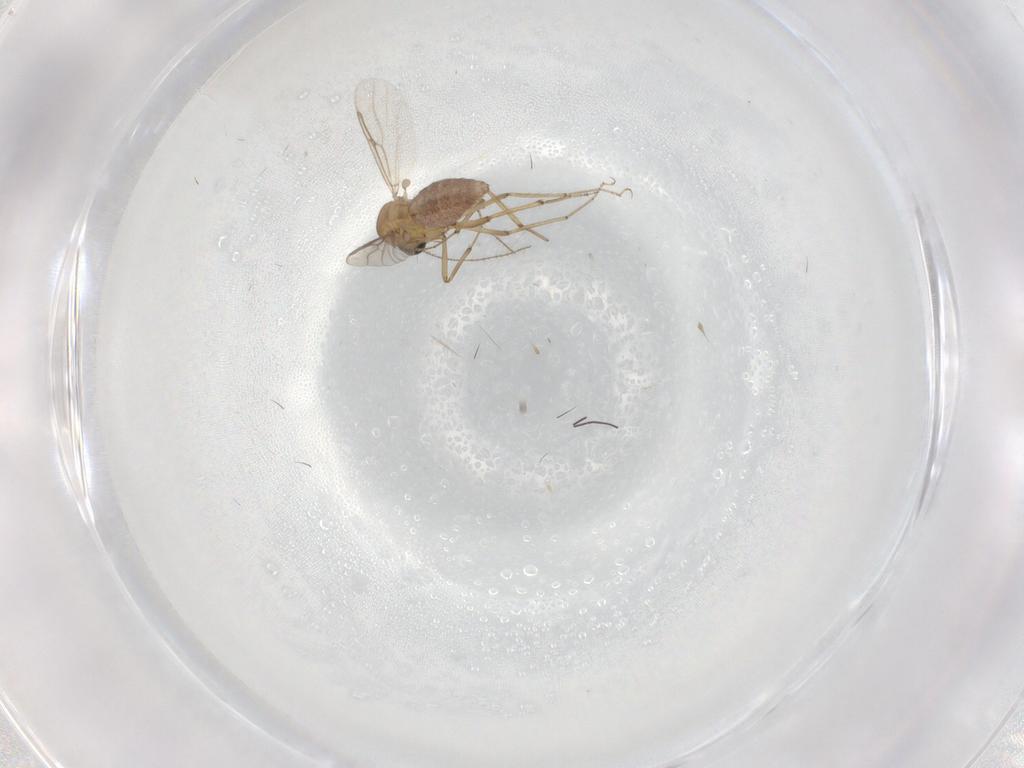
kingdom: Animalia
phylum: Arthropoda
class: Insecta
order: Diptera
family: Ceratopogonidae
